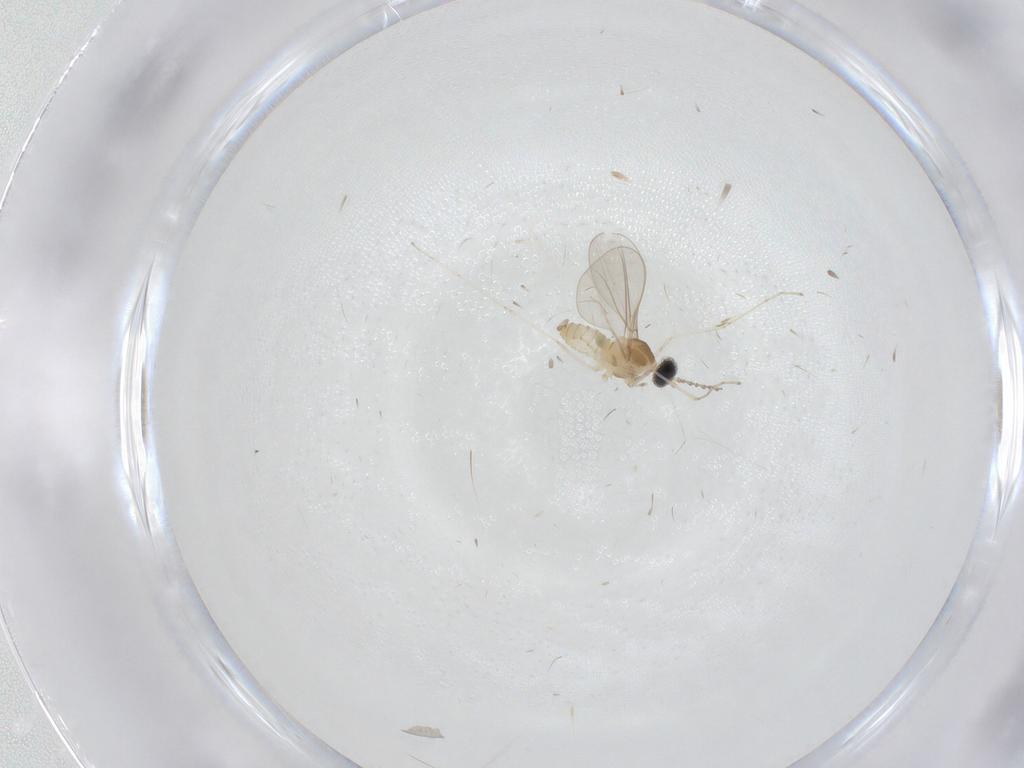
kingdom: Animalia
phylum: Arthropoda
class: Insecta
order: Diptera
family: Cecidomyiidae
